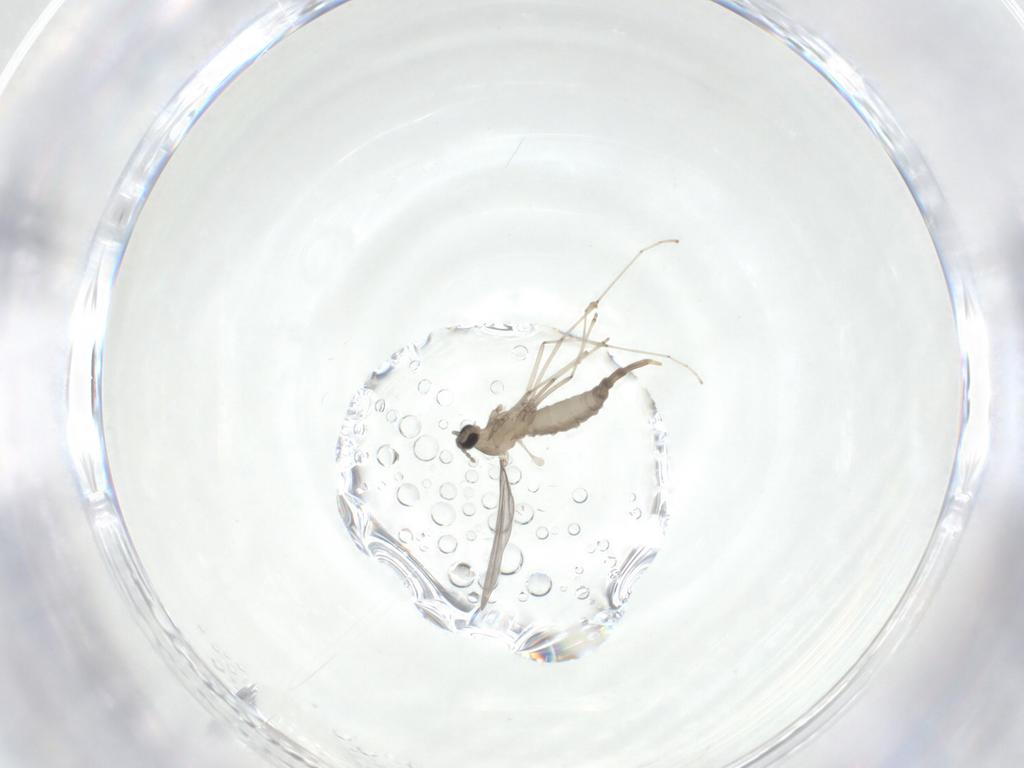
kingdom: Animalia
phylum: Arthropoda
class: Insecta
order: Diptera
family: Cecidomyiidae
